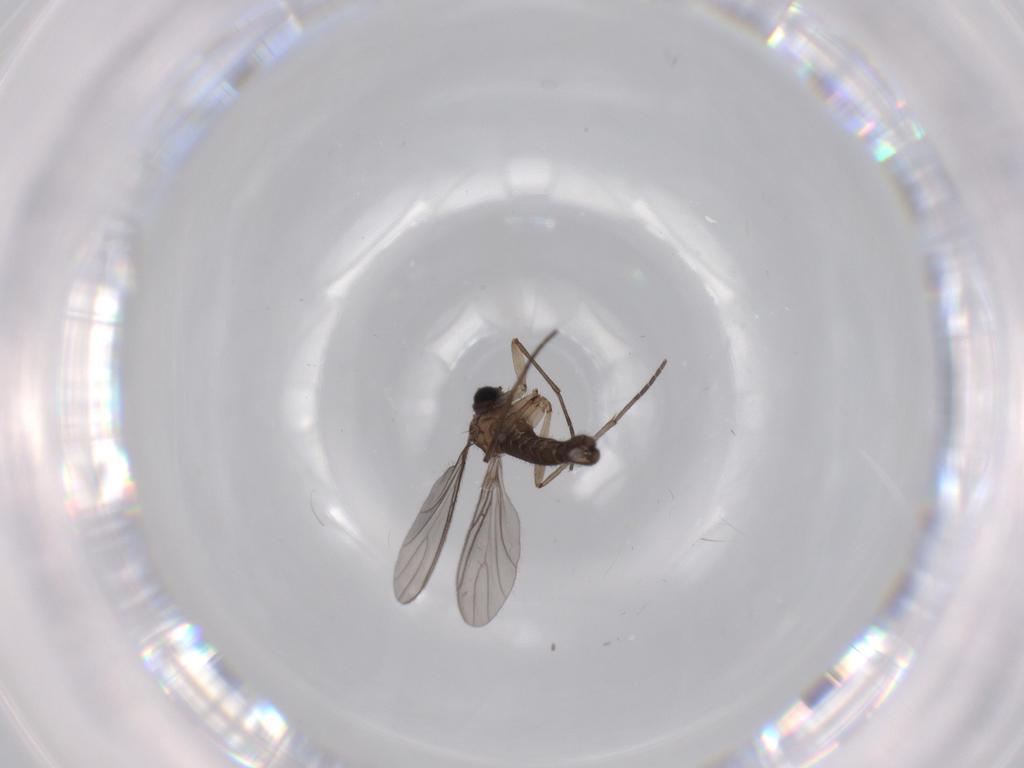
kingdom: Animalia
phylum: Arthropoda
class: Insecta
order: Diptera
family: Sciaridae
